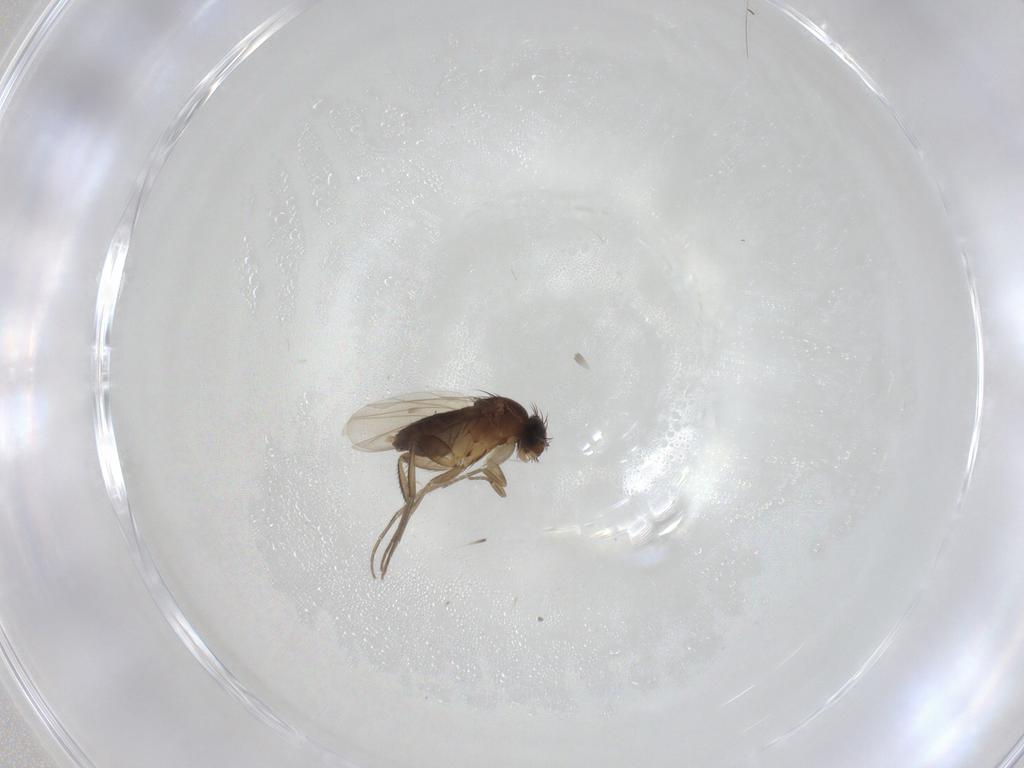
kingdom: Animalia
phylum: Arthropoda
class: Insecta
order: Diptera
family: Phoridae
